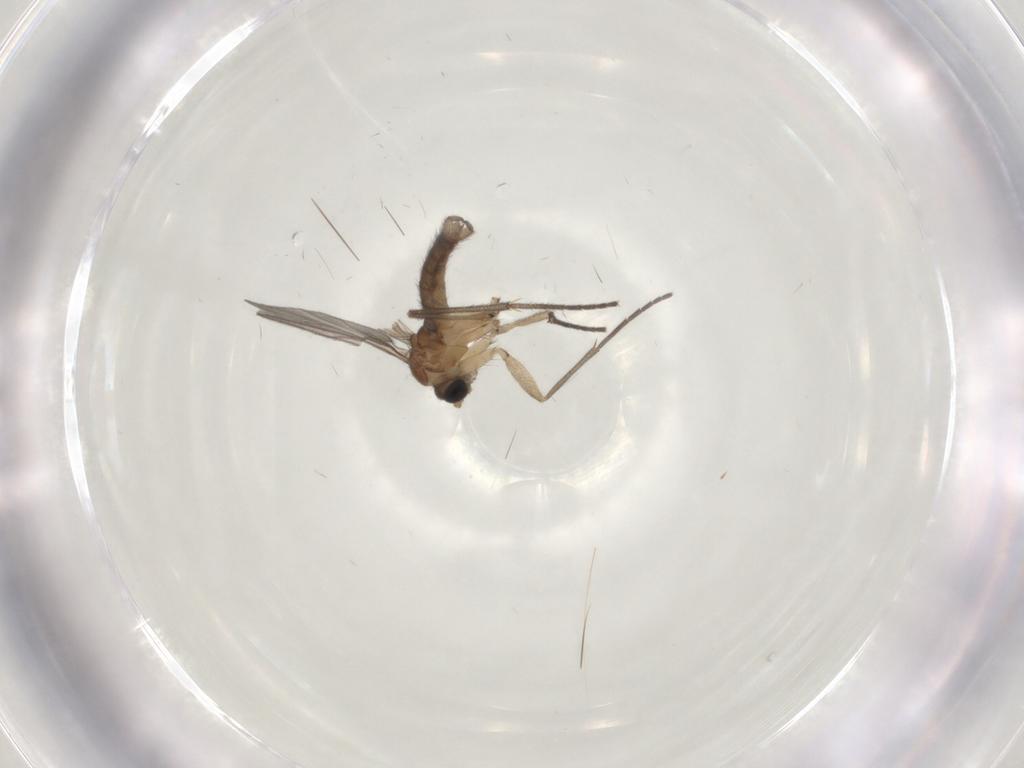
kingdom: Animalia
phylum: Arthropoda
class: Insecta
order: Diptera
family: Sciaridae
